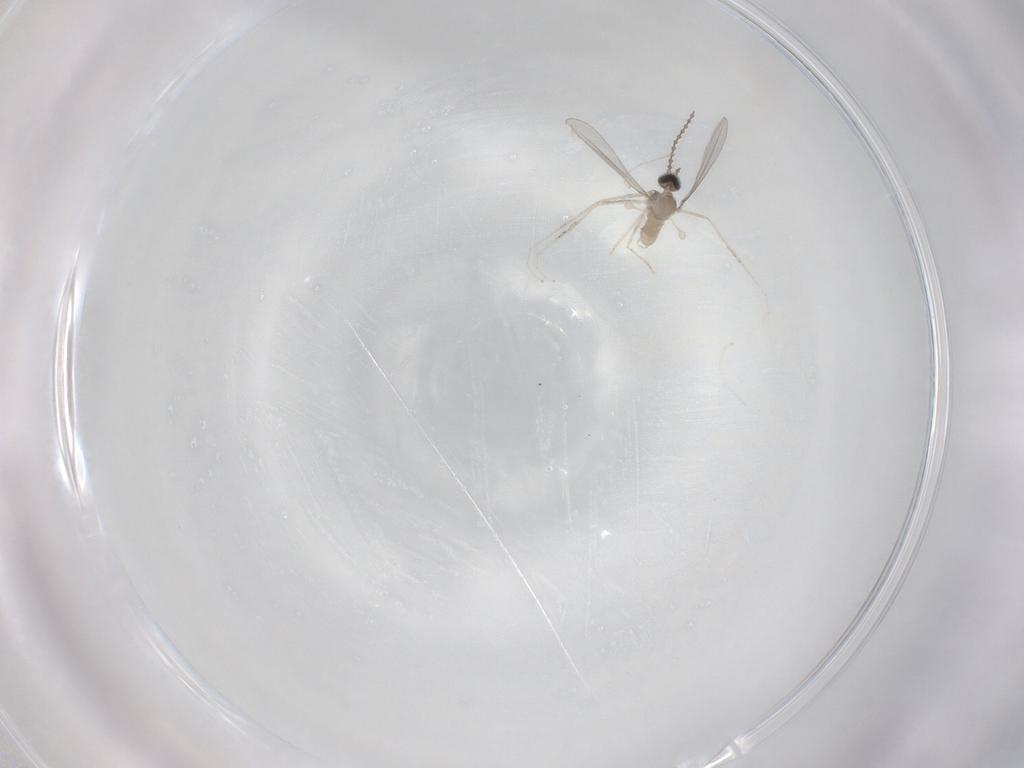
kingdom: Animalia
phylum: Arthropoda
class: Insecta
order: Diptera
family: Cecidomyiidae
